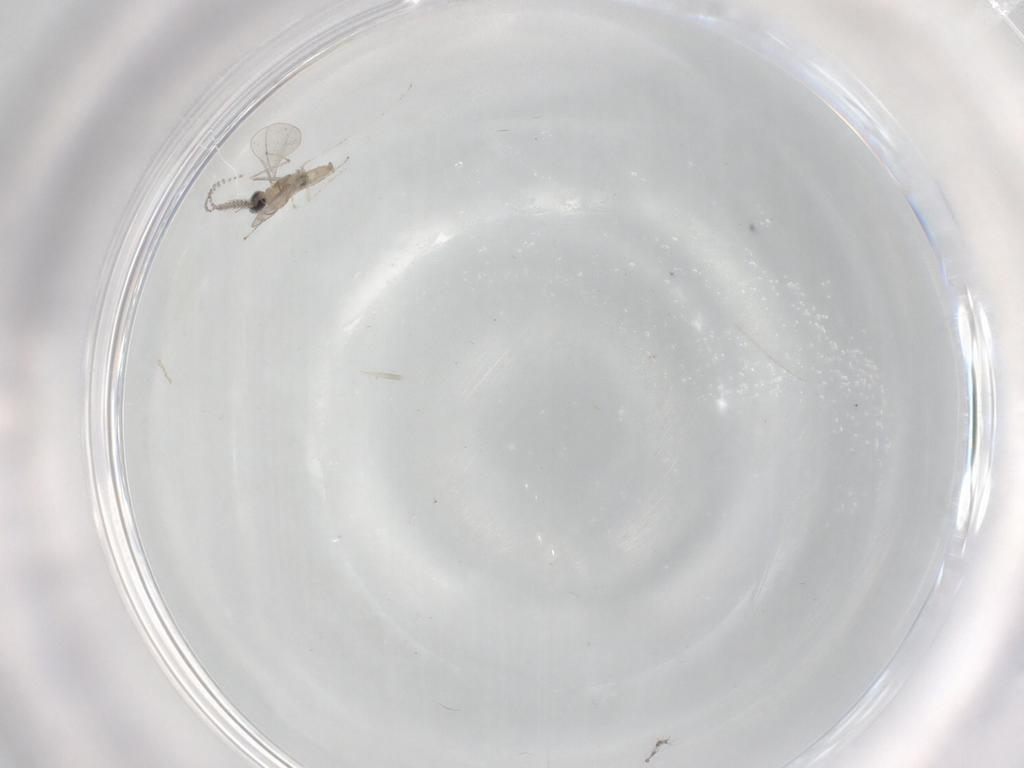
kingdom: Animalia
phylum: Arthropoda
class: Insecta
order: Diptera
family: Cecidomyiidae
